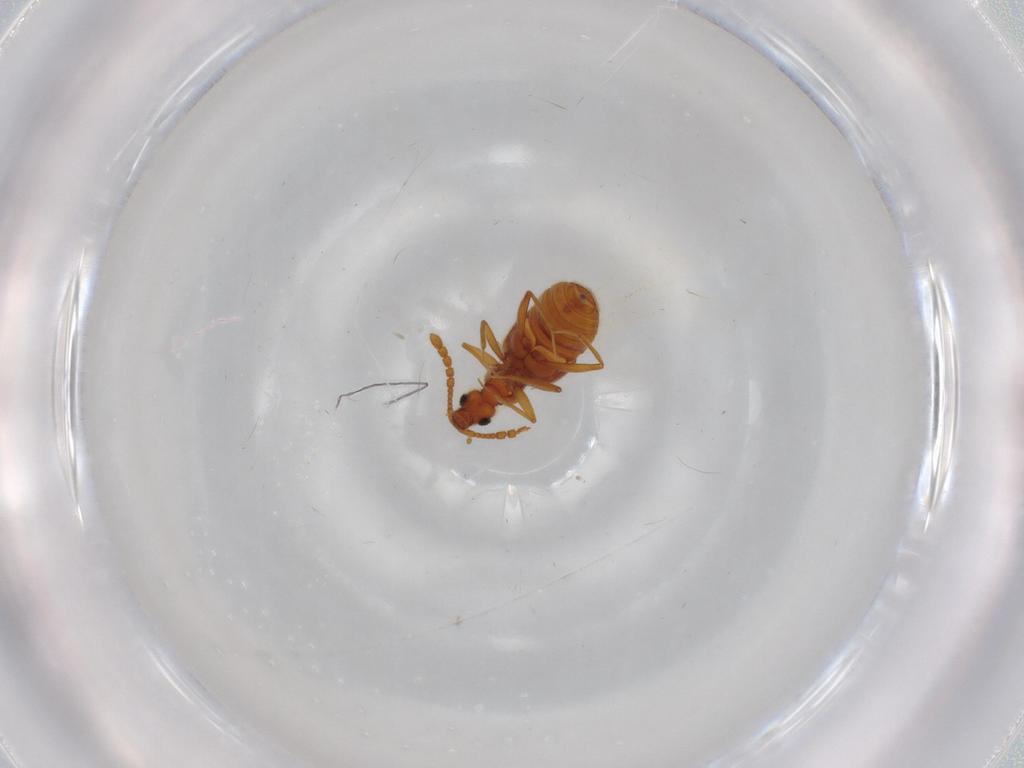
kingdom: Animalia
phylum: Arthropoda
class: Insecta
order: Coleoptera
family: Staphylinidae
